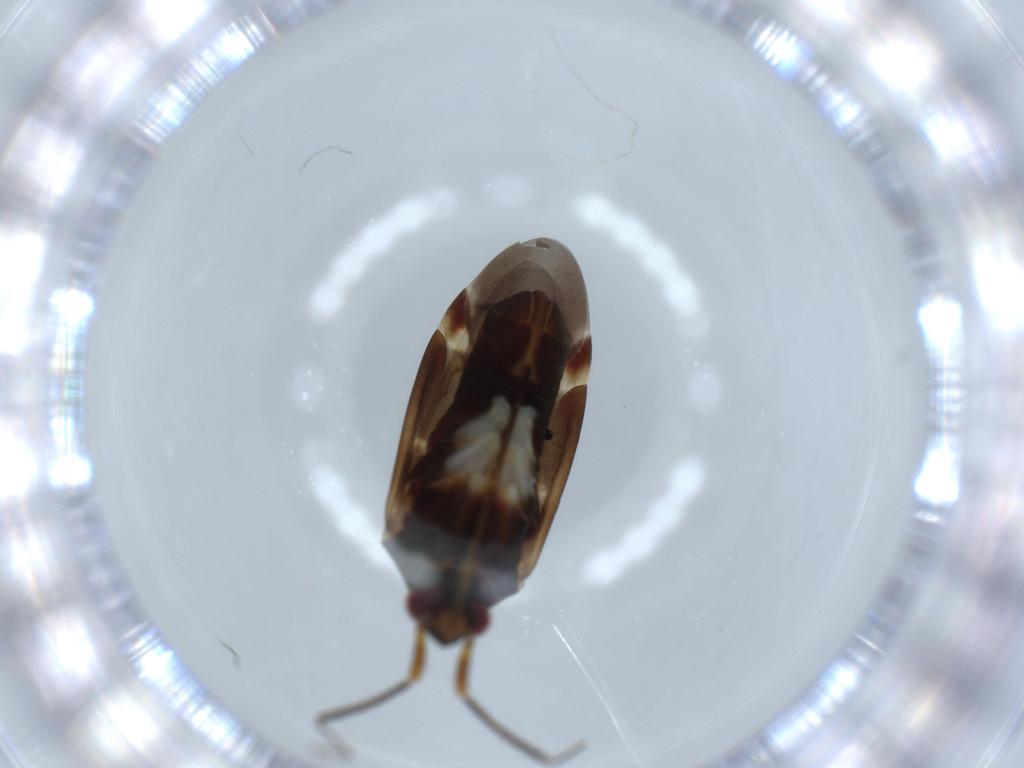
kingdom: Animalia
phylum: Arthropoda
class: Insecta
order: Hemiptera
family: Miridae
